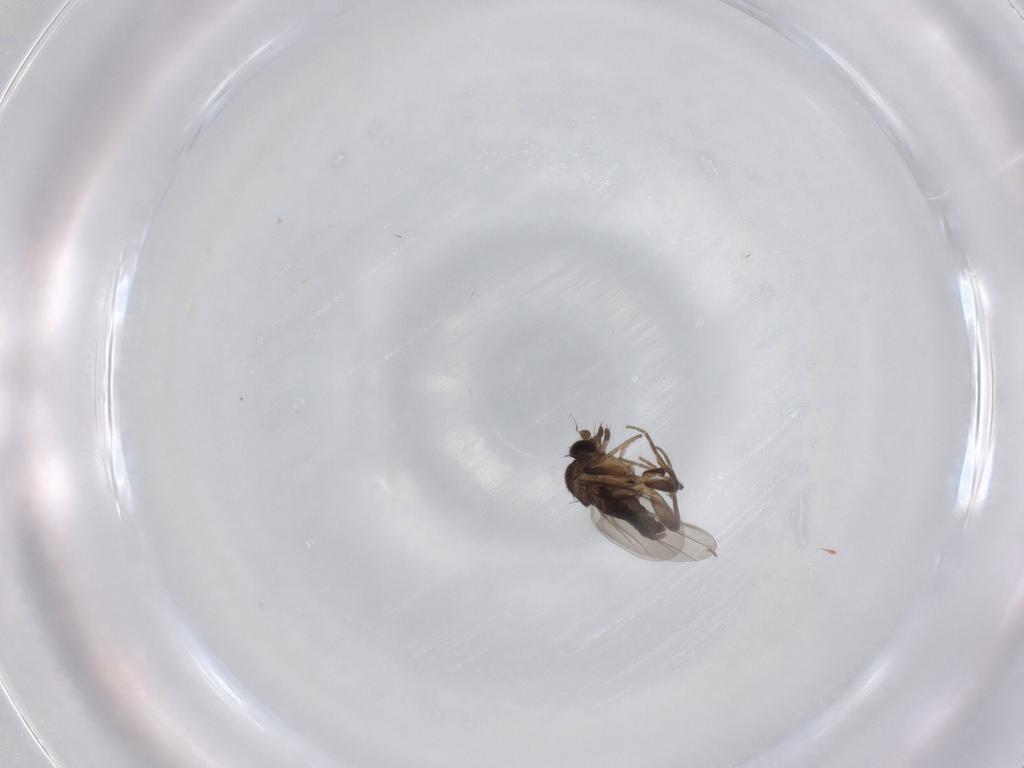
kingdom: Animalia
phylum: Arthropoda
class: Insecta
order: Diptera
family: Phoridae
